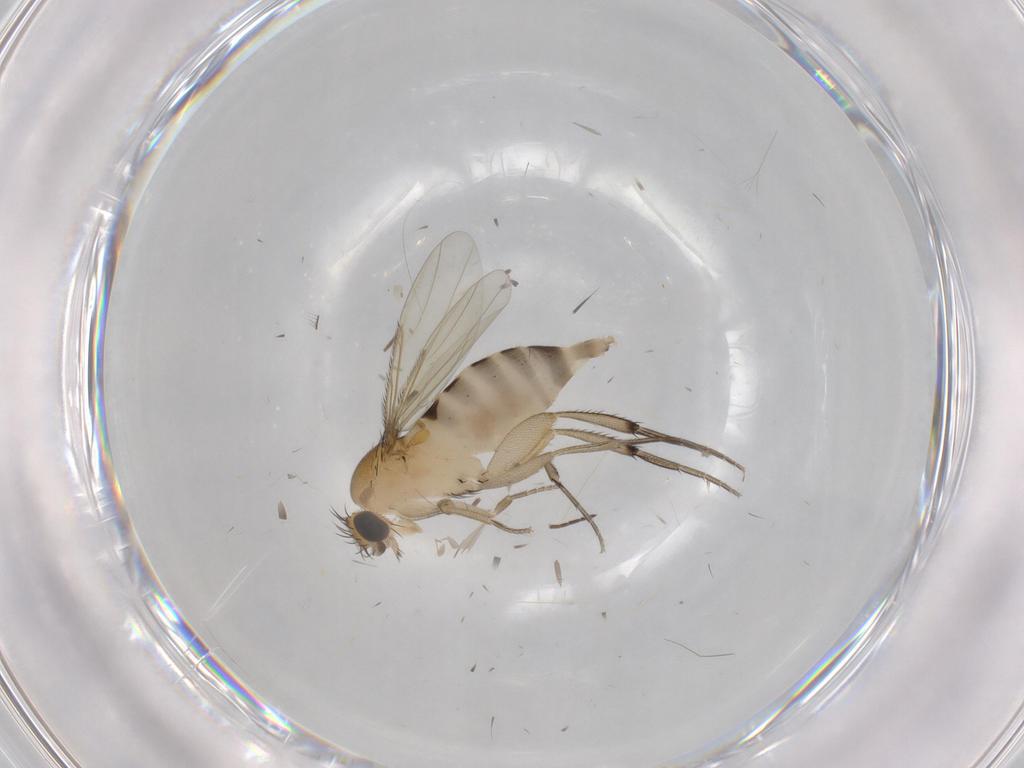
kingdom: Animalia
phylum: Arthropoda
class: Insecta
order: Diptera
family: Phoridae
